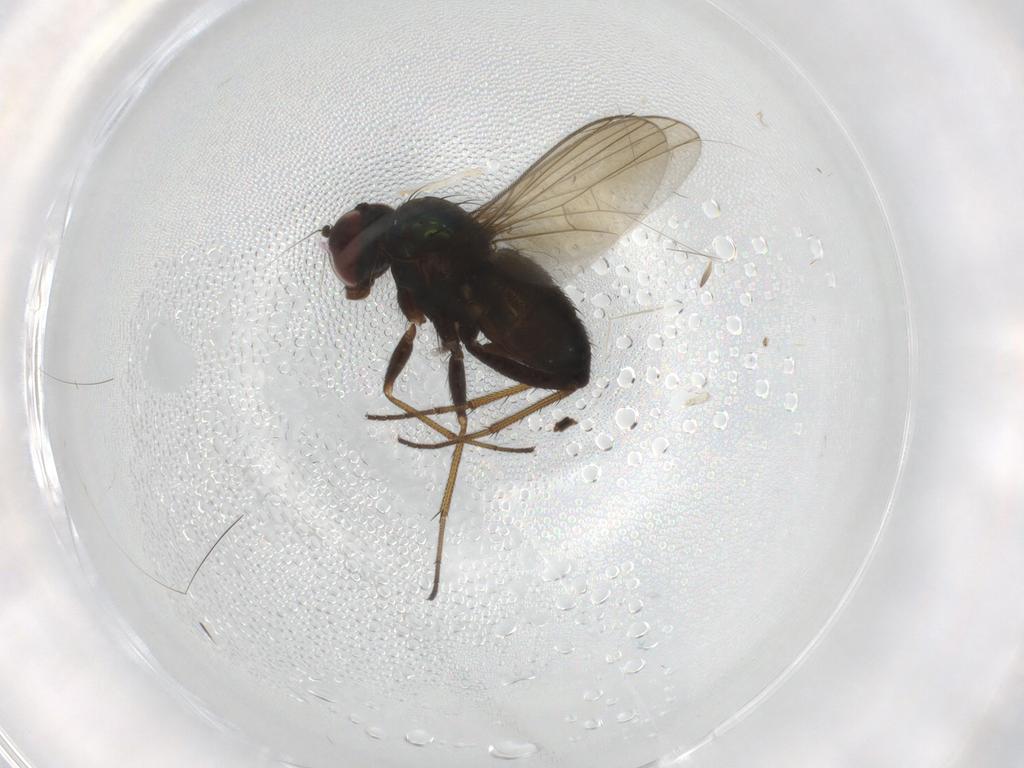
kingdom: Animalia
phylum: Arthropoda
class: Insecta
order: Diptera
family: Dolichopodidae
